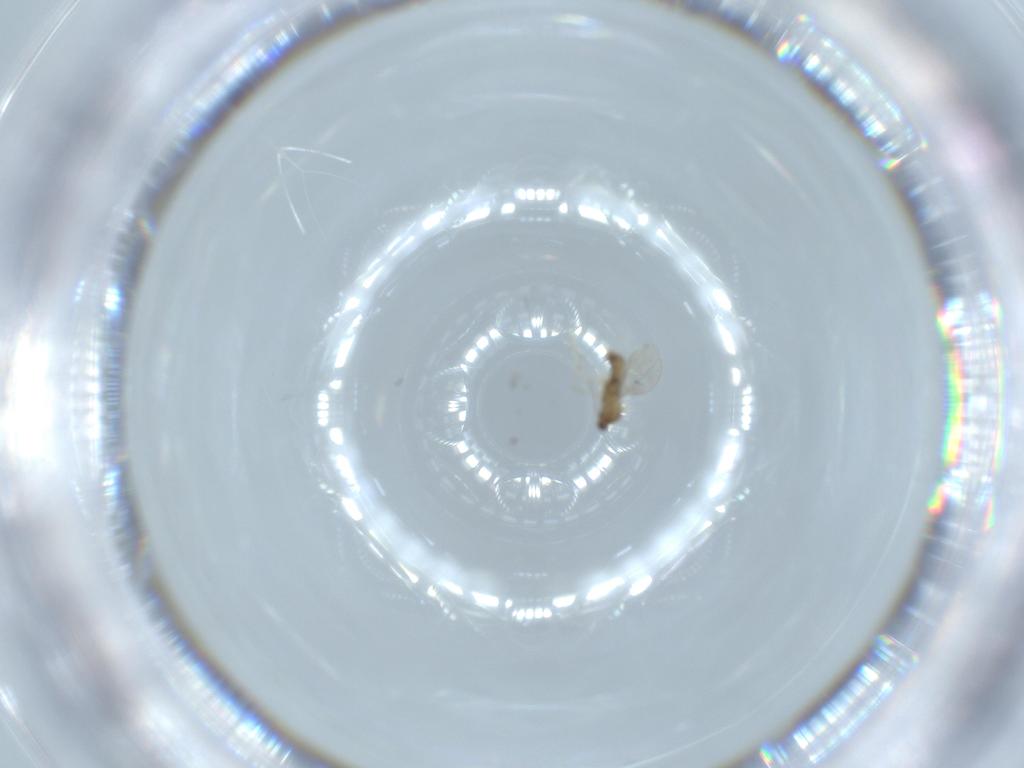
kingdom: Animalia
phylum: Arthropoda
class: Insecta
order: Diptera
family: Cecidomyiidae
